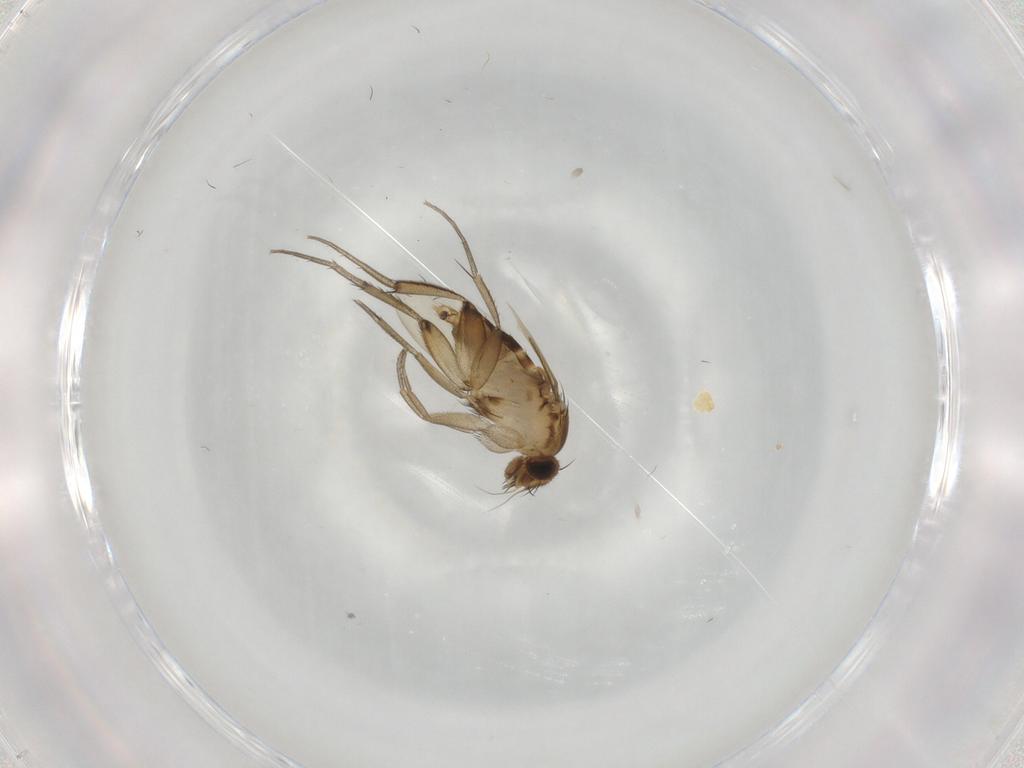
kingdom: Animalia
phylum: Arthropoda
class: Insecta
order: Diptera
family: Phoridae
